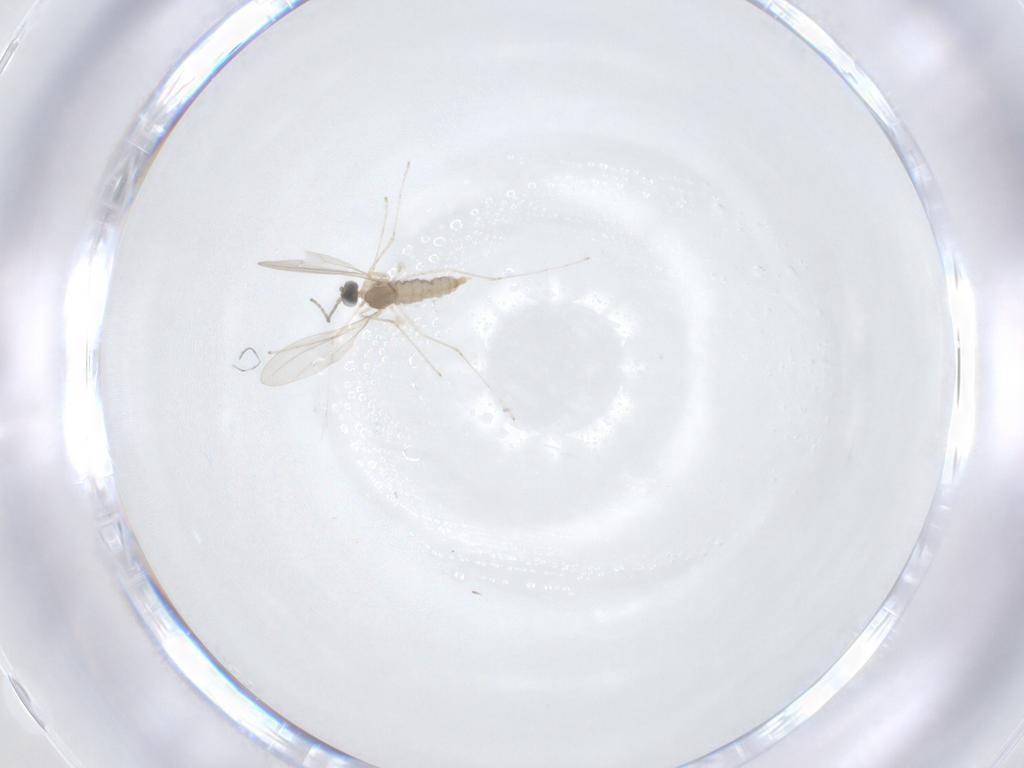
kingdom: Animalia
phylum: Arthropoda
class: Insecta
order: Diptera
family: Cecidomyiidae
